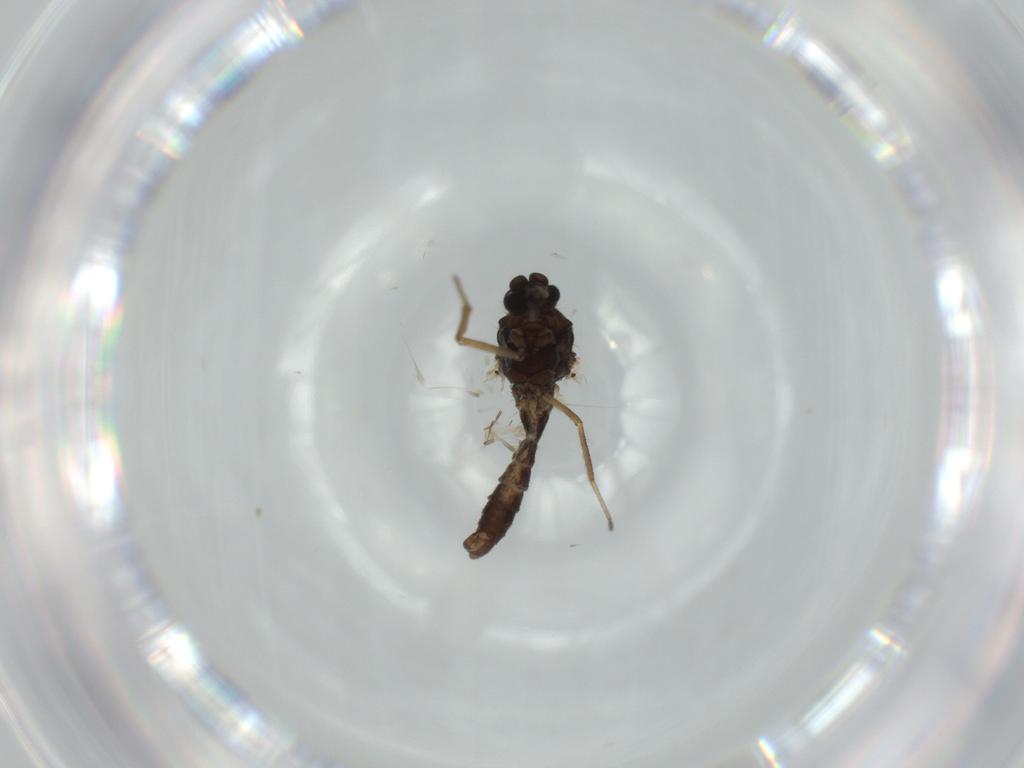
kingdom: Animalia
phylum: Arthropoda
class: Insecta
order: Diptera
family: Ceratopogonidae
